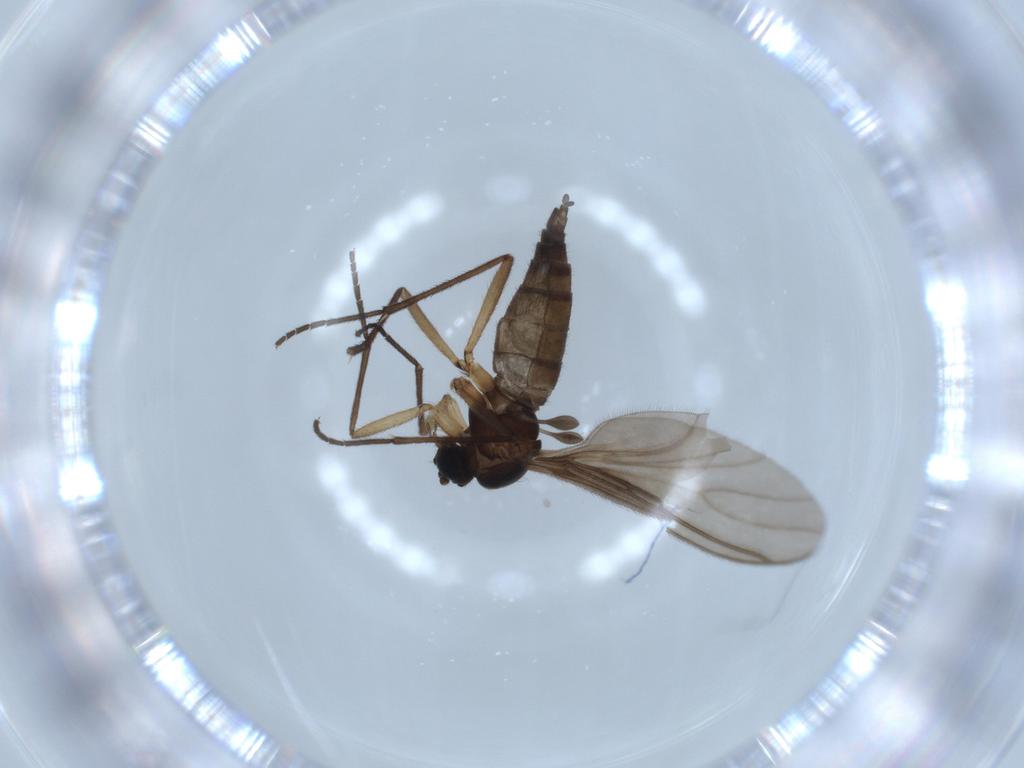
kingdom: Animalia
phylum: Arthropoda
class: Insecta
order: Diptera
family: Sciaridae
